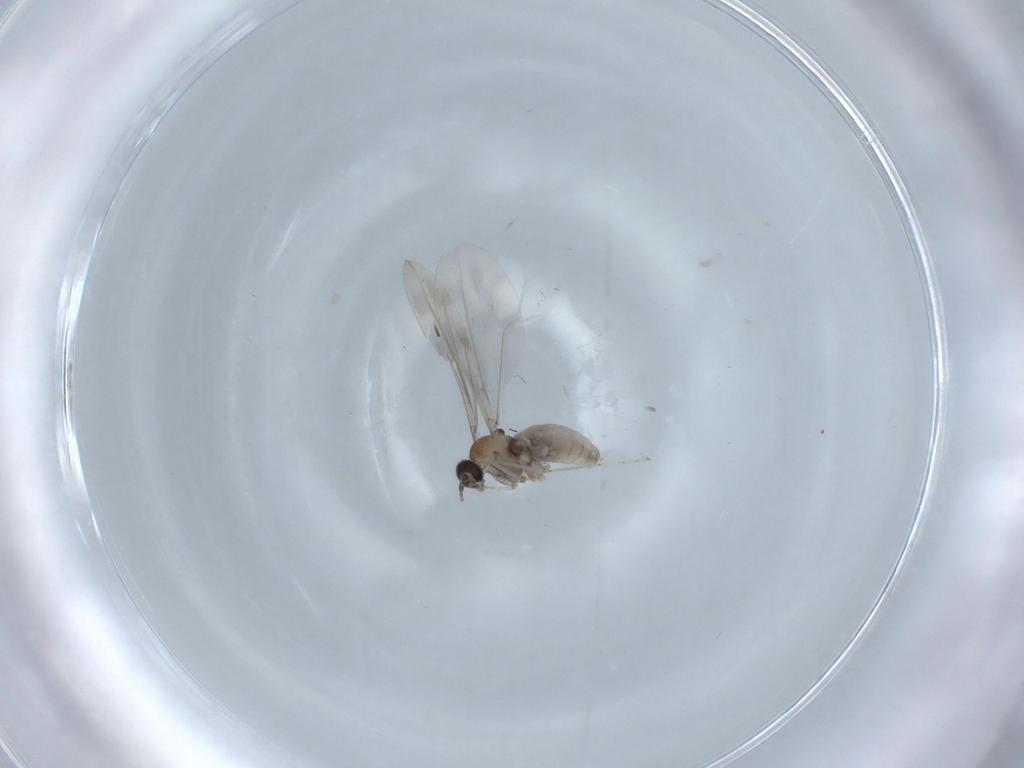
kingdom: Animalia
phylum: Arthropoda
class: Insecta
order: Diptera
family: Cecidomyiidae
